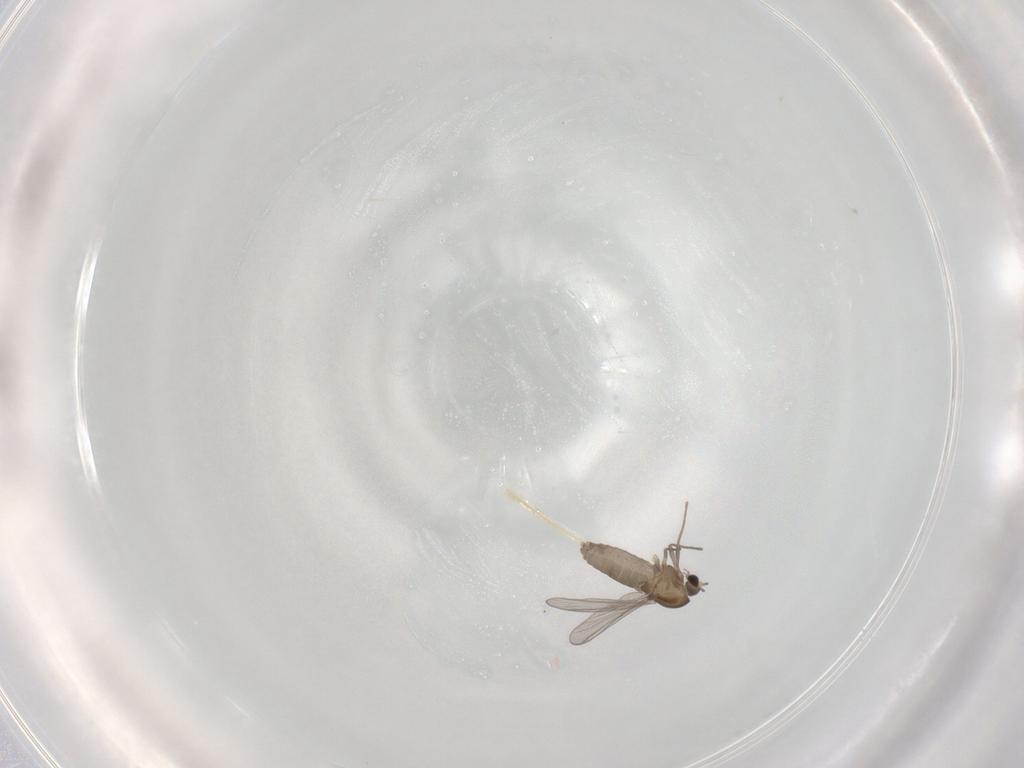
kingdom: Animalia
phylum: Arthropoda
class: Insecta
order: Diptera
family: Cecidomyiidae
